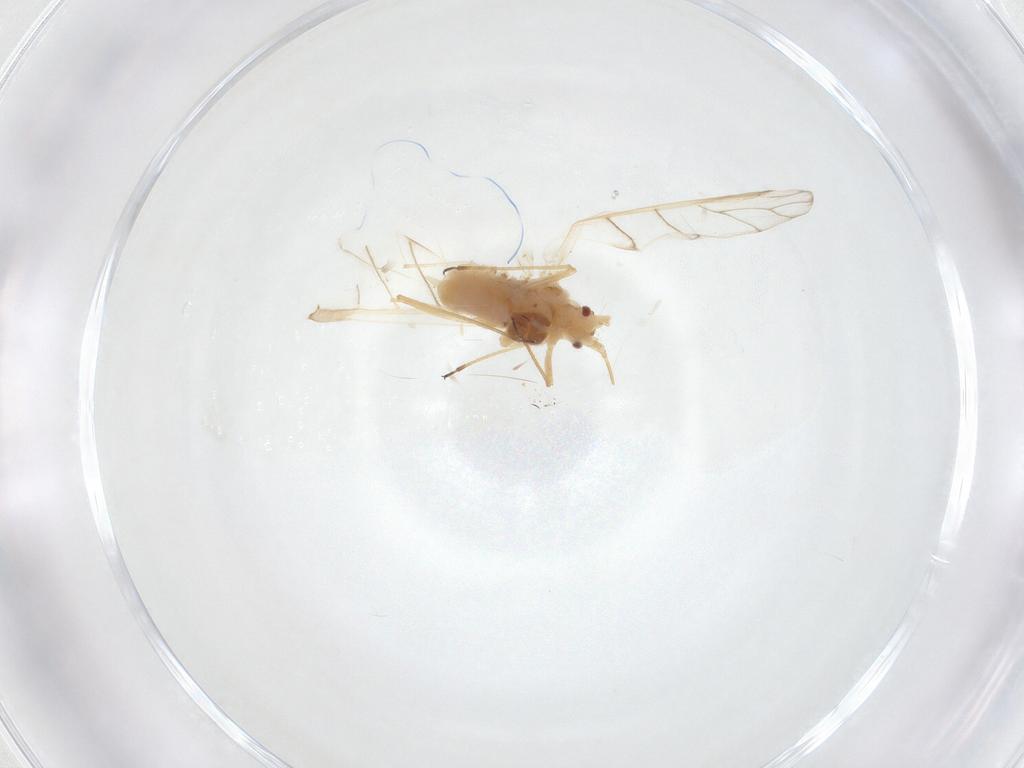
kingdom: Animalia
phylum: Arthropoda
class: Insecta
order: Hemiptera
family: Aphididae
